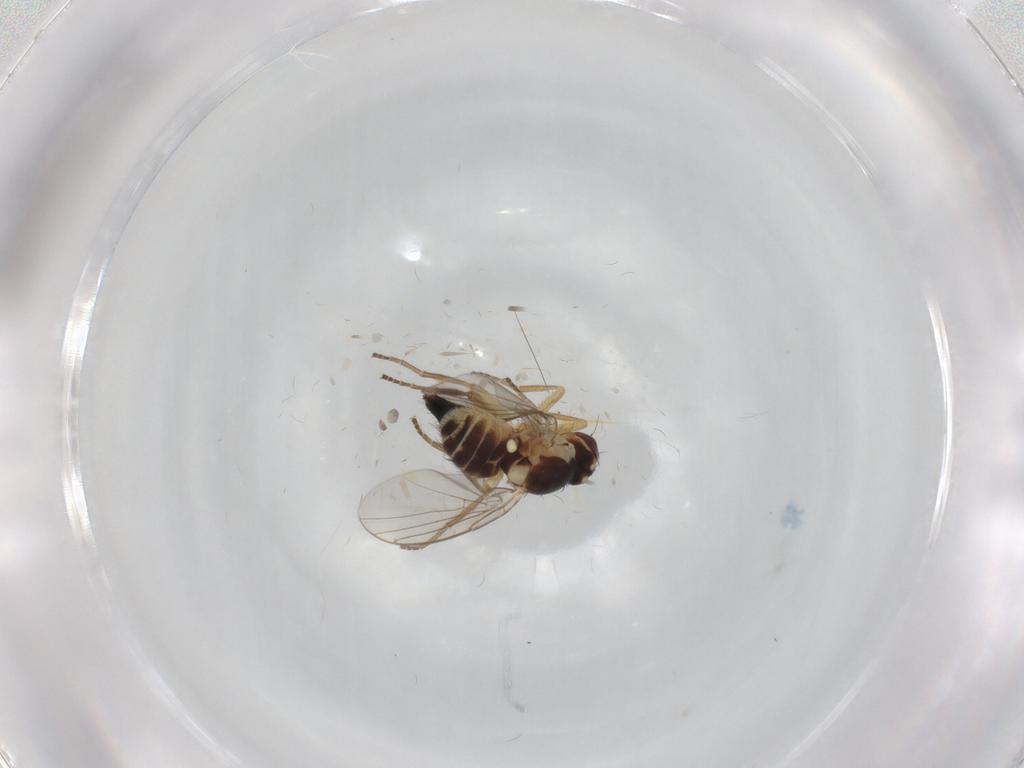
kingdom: Animalia
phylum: Arthropoda
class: Insecta
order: Diptera
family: Agromyzidae
